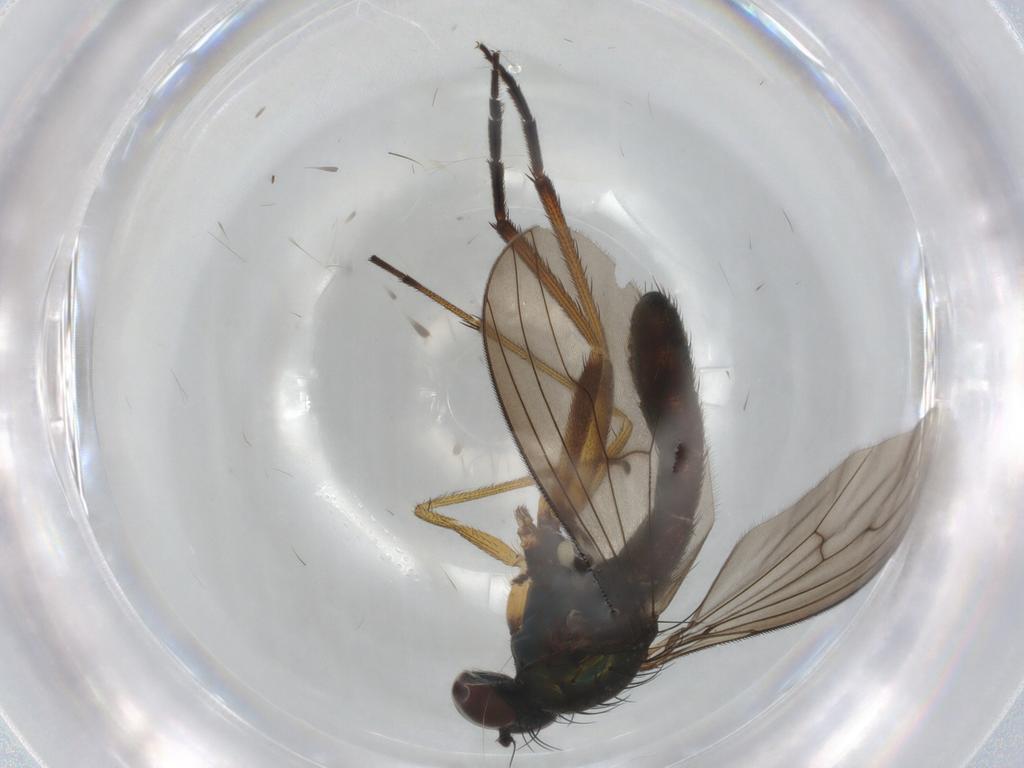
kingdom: Animalia
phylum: Arthropoda
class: Insecta
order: Diptera
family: Dolichopodidae
